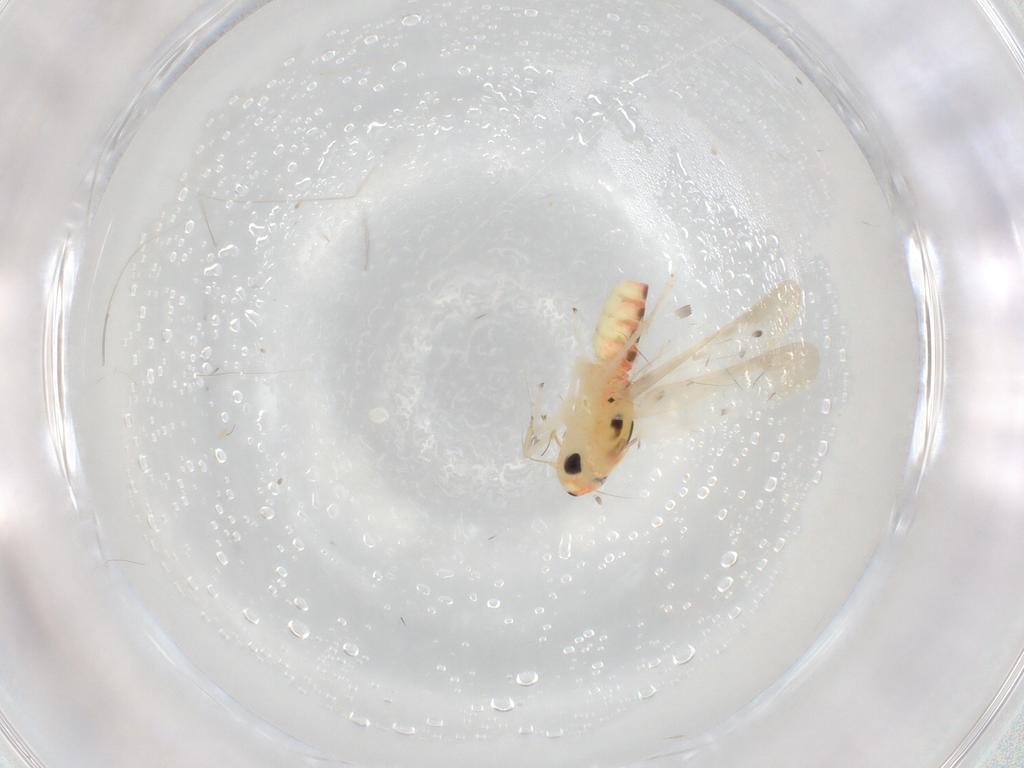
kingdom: Animalia
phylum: Arthropoda
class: Insecta
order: Hemiptera
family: Cicadellidae
